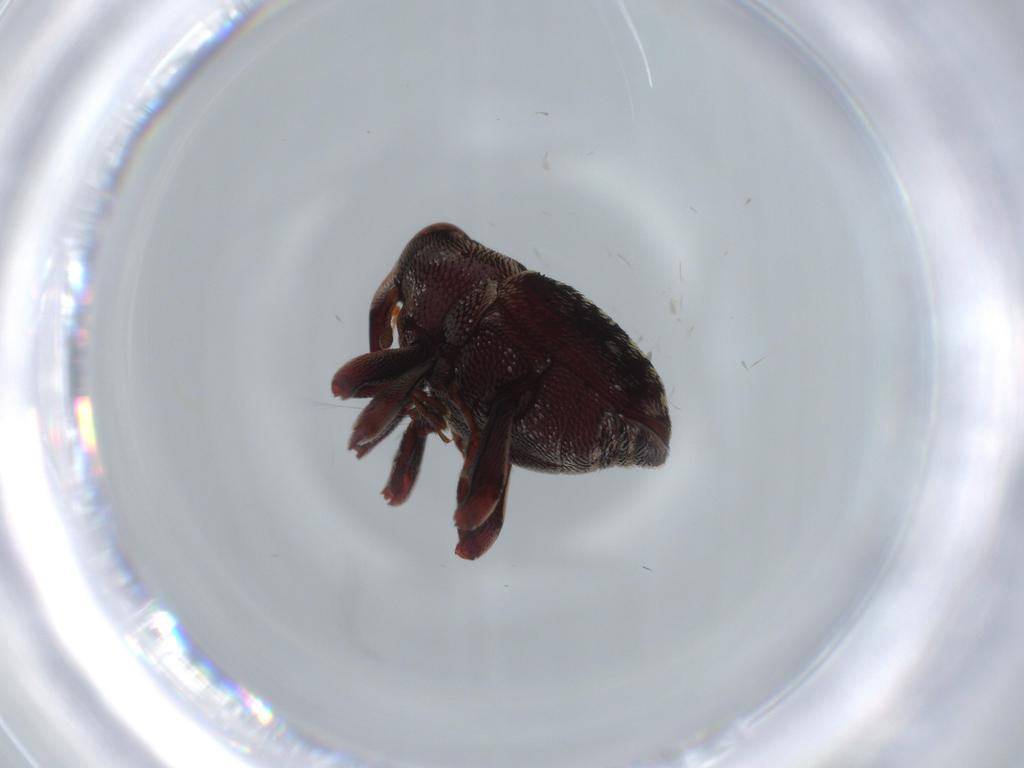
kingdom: Animalia
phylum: Arthropoda
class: Insecta
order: Coleoptera
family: Curculionidae
